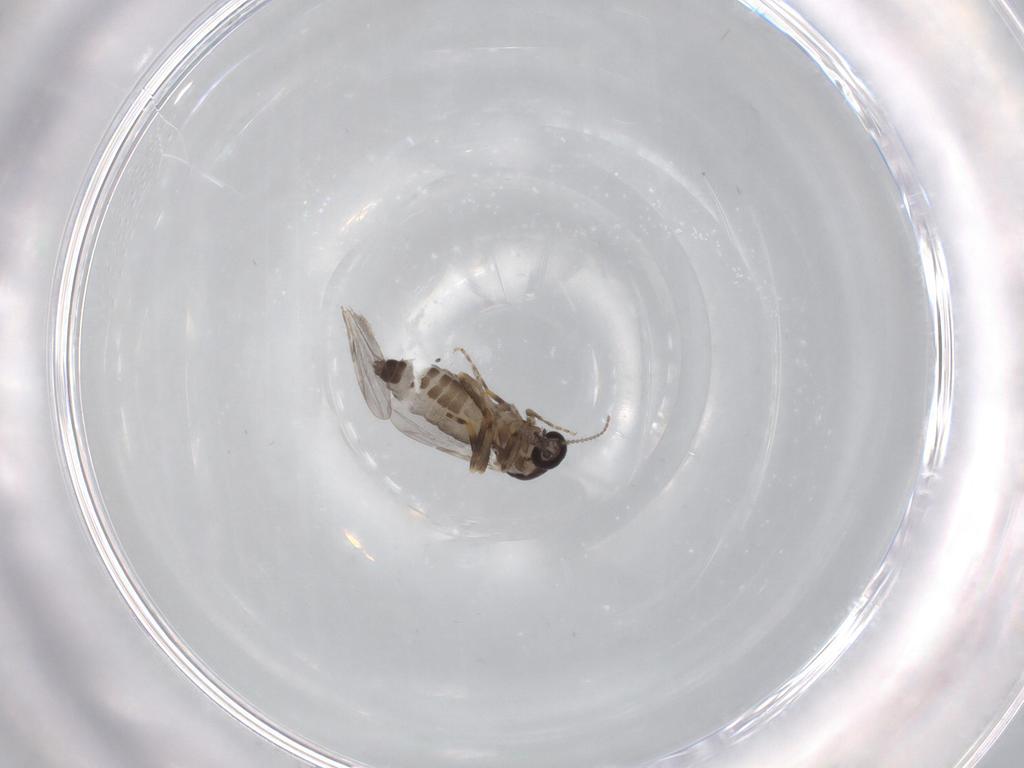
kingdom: Animalia
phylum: Arthropoda
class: Insecta
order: Diptera
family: Ceratopogonidae
